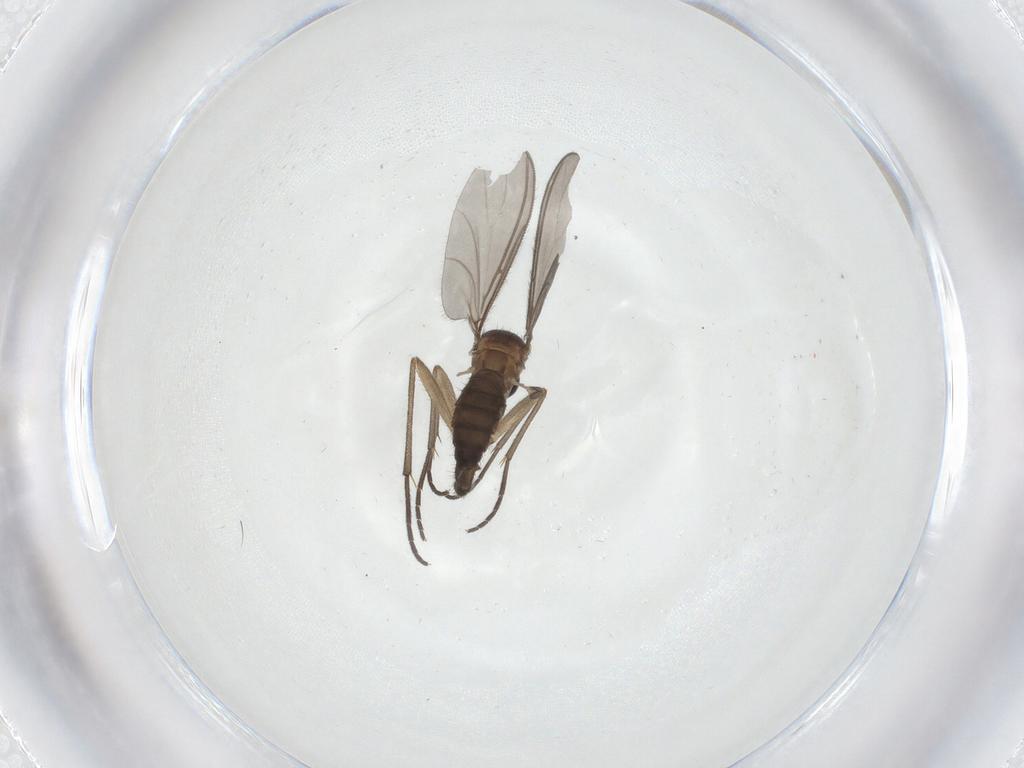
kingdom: Animalia
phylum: Arthropoda
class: Insecta
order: Diptera
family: Sciaridae
